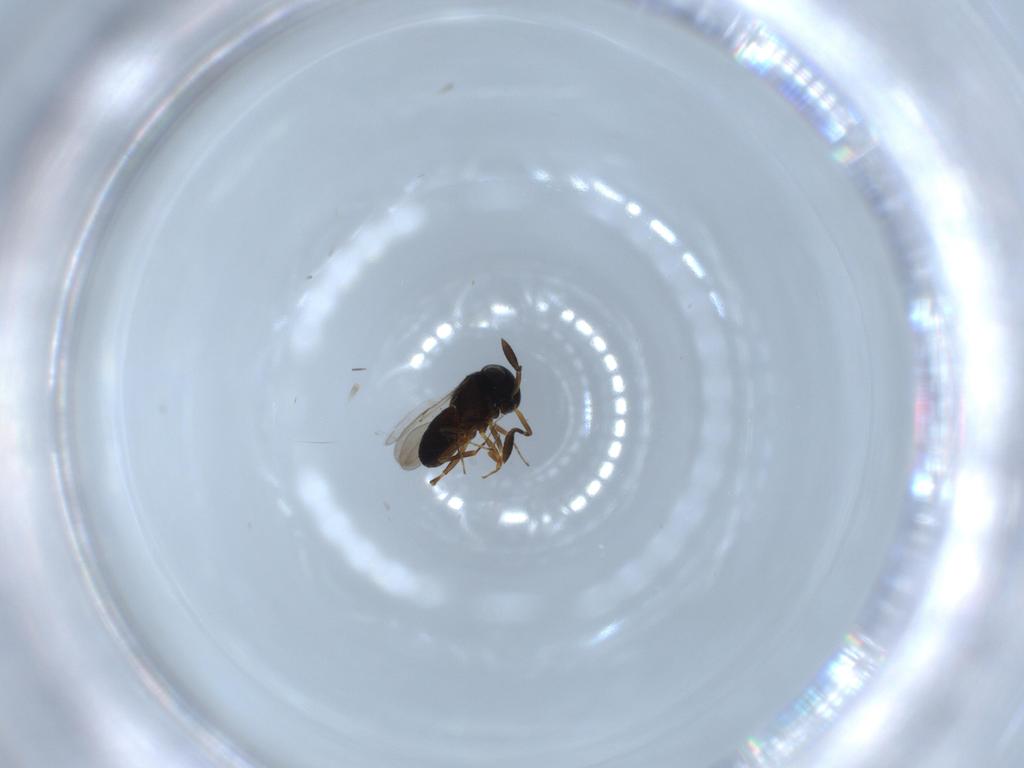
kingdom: Animalia
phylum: Arthropoda
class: Insecta
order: Hymenoptera
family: Scelionidae
